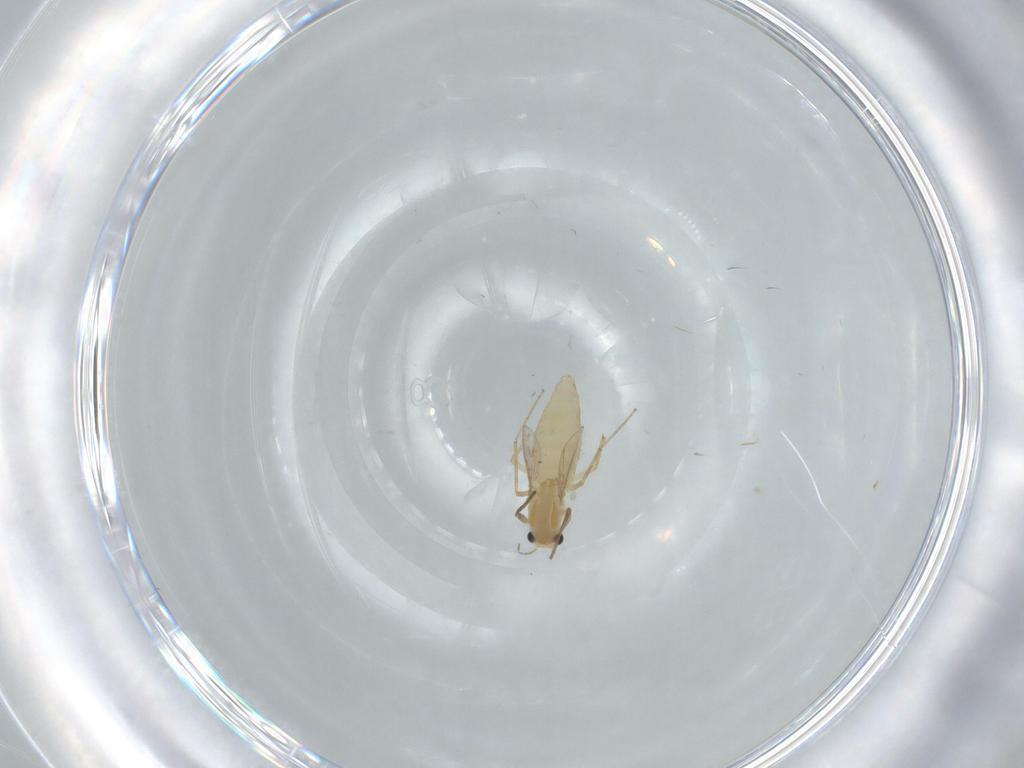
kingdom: Animalia
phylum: Arthropoda
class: Insecta
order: Diptera
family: Chironomidae
